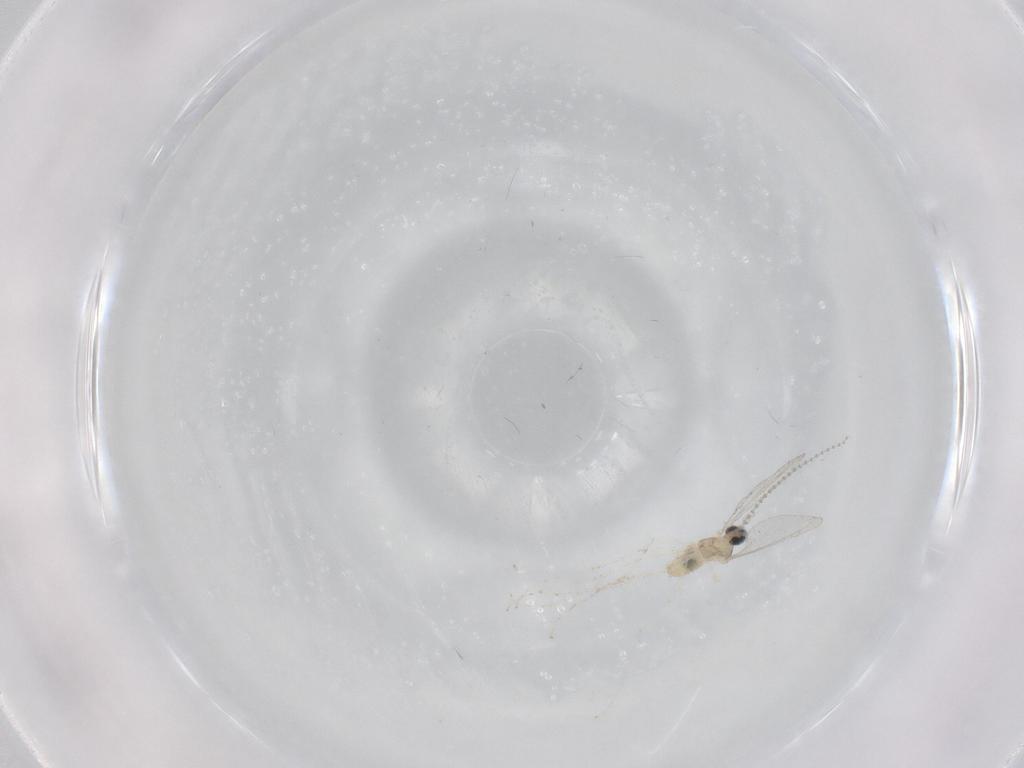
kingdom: Animalia
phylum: Arthropoda
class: Insecta
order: Diptera
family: Cecidomyiidae
